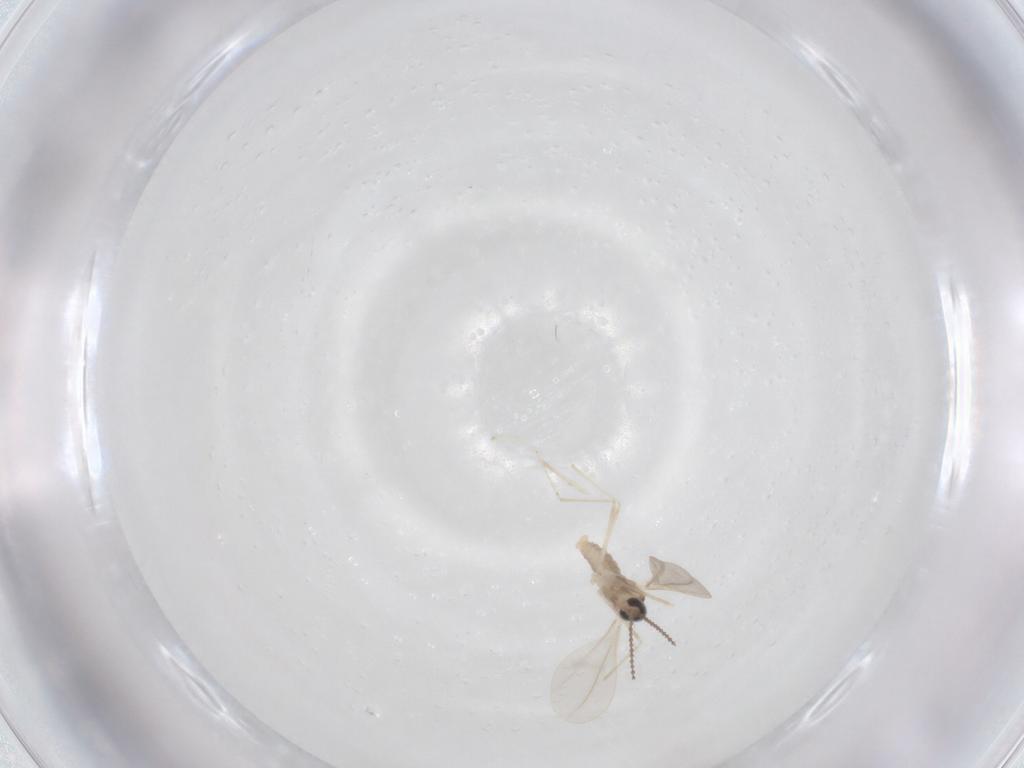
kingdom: Animalia
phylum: Arthropoda
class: Insecta
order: Diptera
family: Cecidomyiidae
